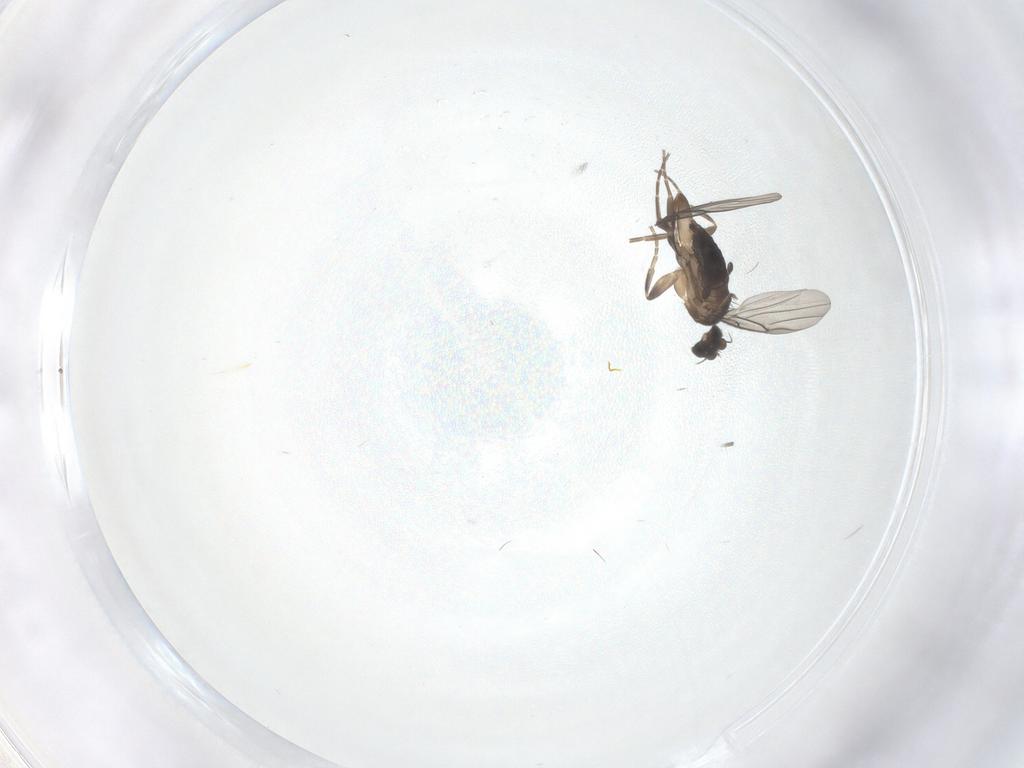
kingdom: Animalia
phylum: Arthropoda
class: Insecta
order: Diptera
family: Phoridae
